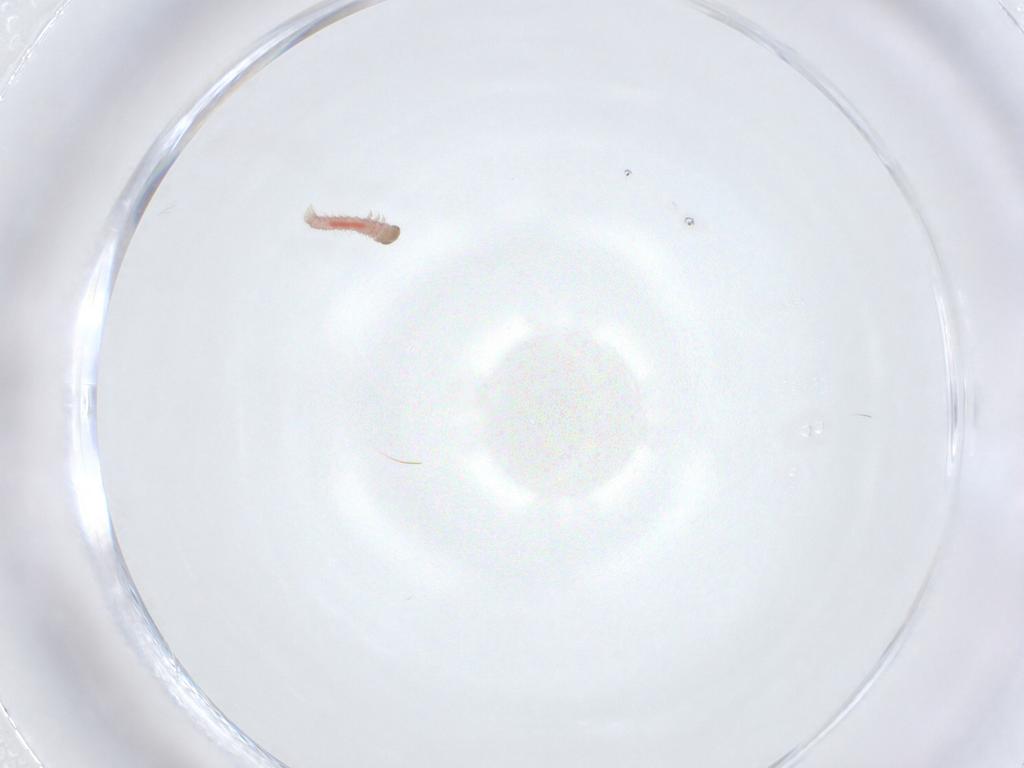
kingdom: Animalia
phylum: Arthropoda
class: Insecta
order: Lepidoptera
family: Xyloryctidae
